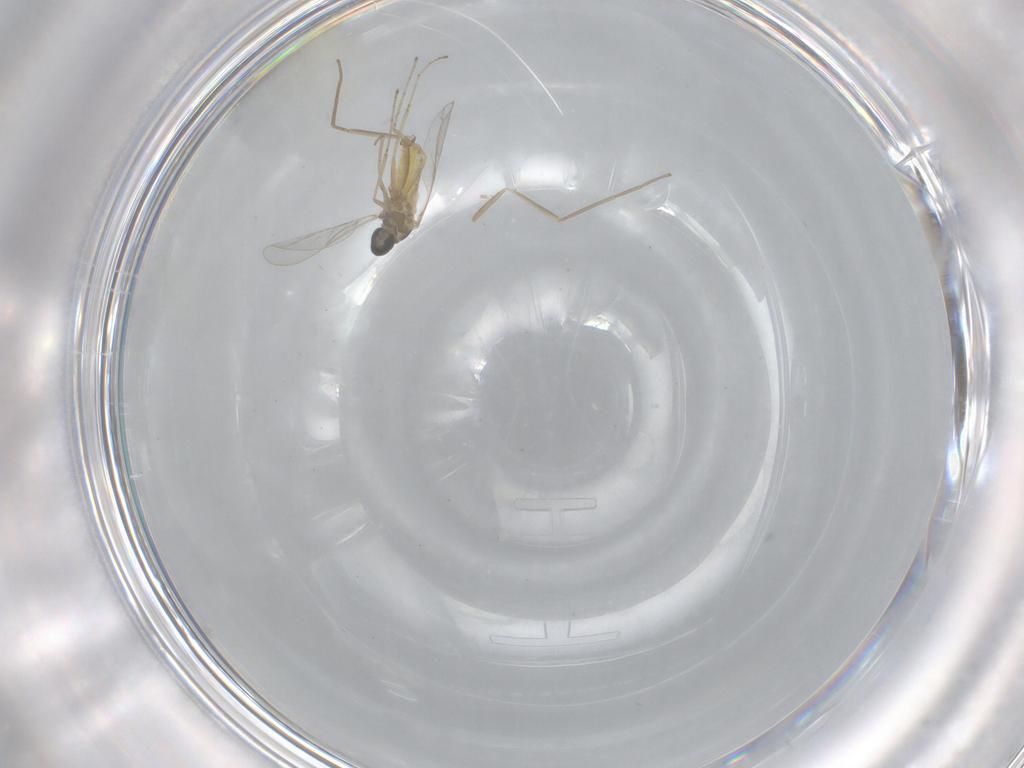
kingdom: Animalia
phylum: Arthropoda
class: Insecta
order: Diptera
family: Cecidomyiidae
